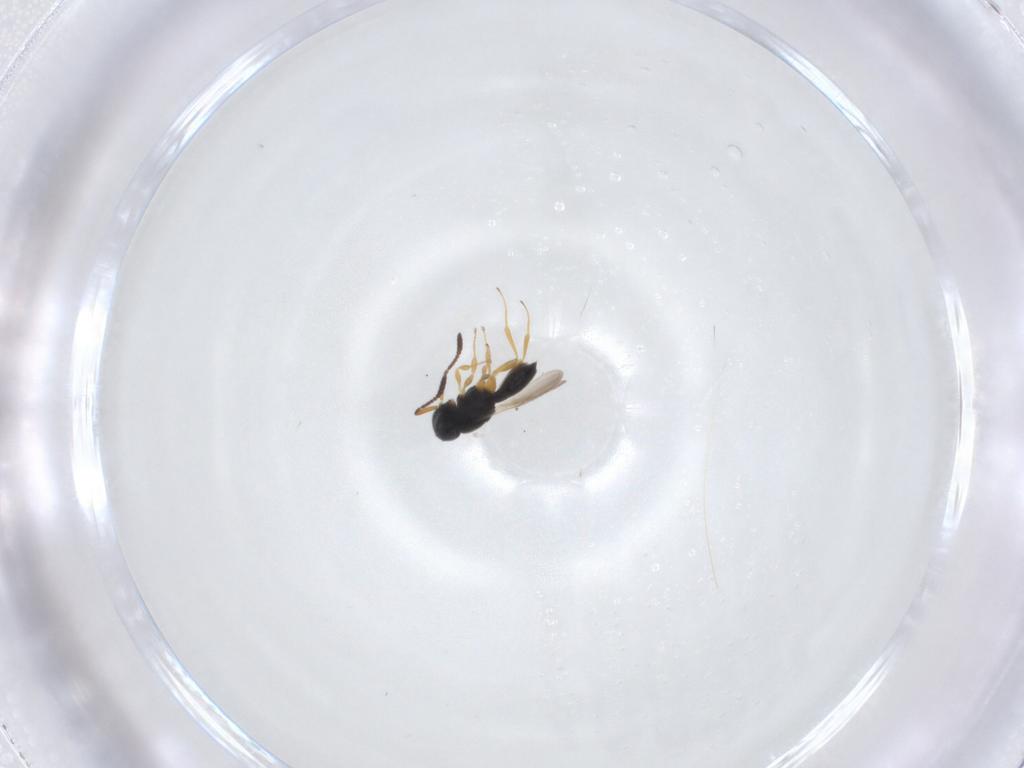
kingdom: Animalia
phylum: Arthropoda
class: Insecta
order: Hymenoptera
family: Scelionidae
